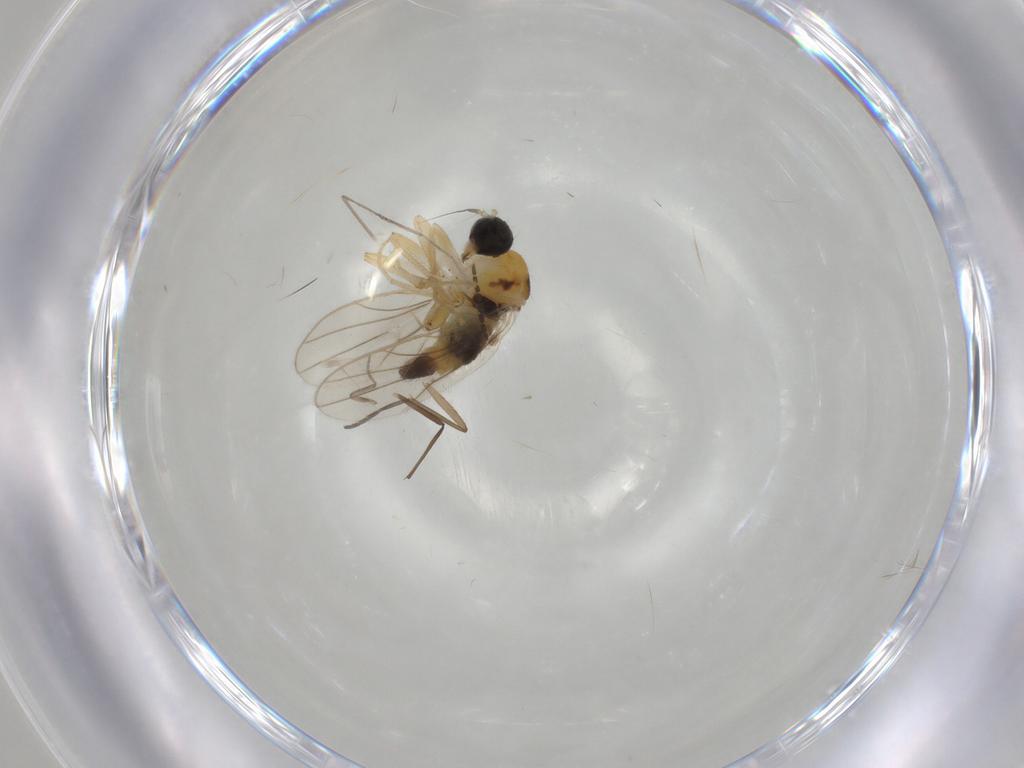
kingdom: Animalia
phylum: Arthropoda
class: Insecta
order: Diptera
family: Hybotidae
